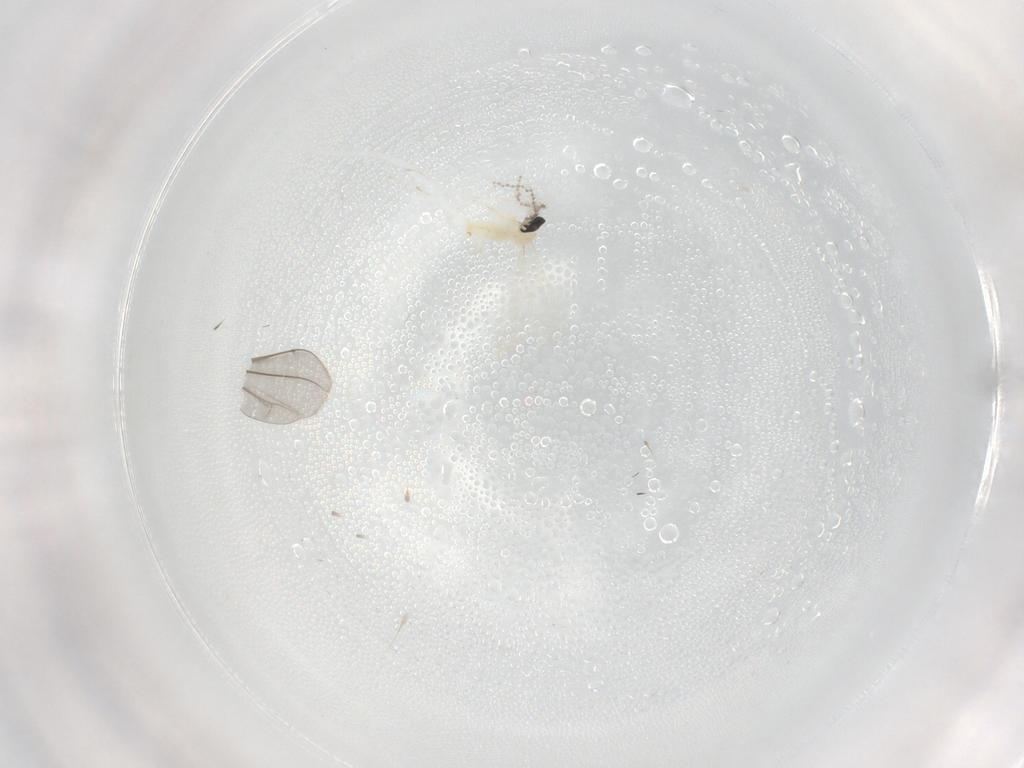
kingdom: Animalia
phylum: Arthropoda
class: Insecta
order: Diptera
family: Cecidomyiidae
